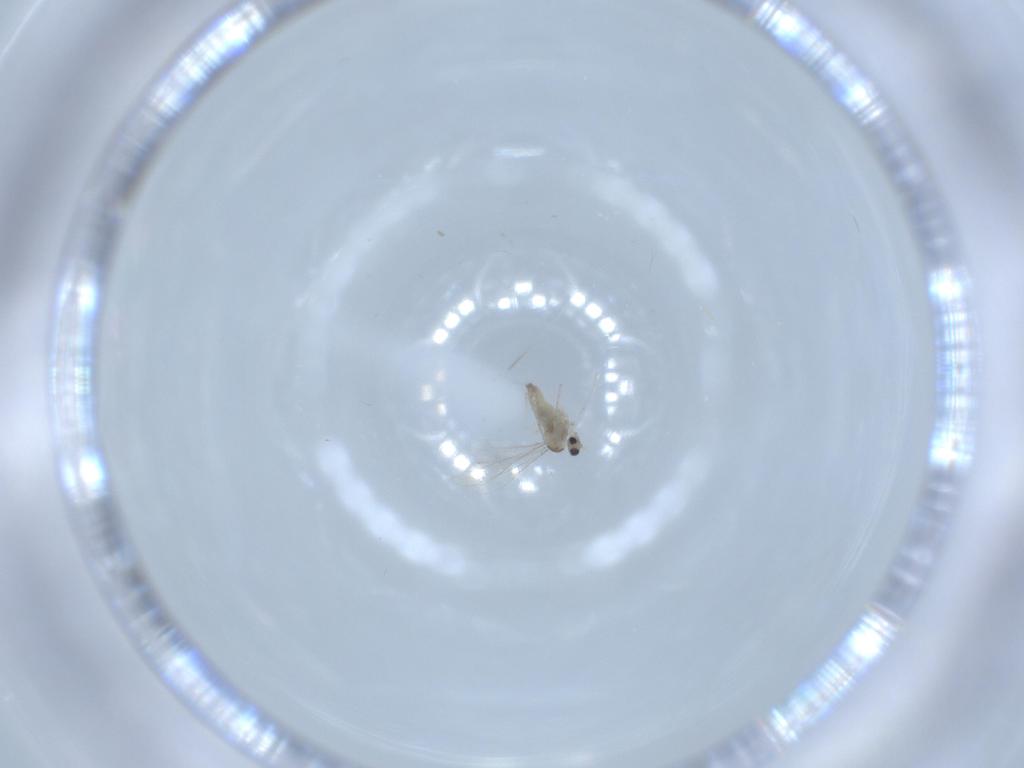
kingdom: Animalia
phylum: Arthropoda
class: Insecta
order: Diptera
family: Cecidomyiidae
